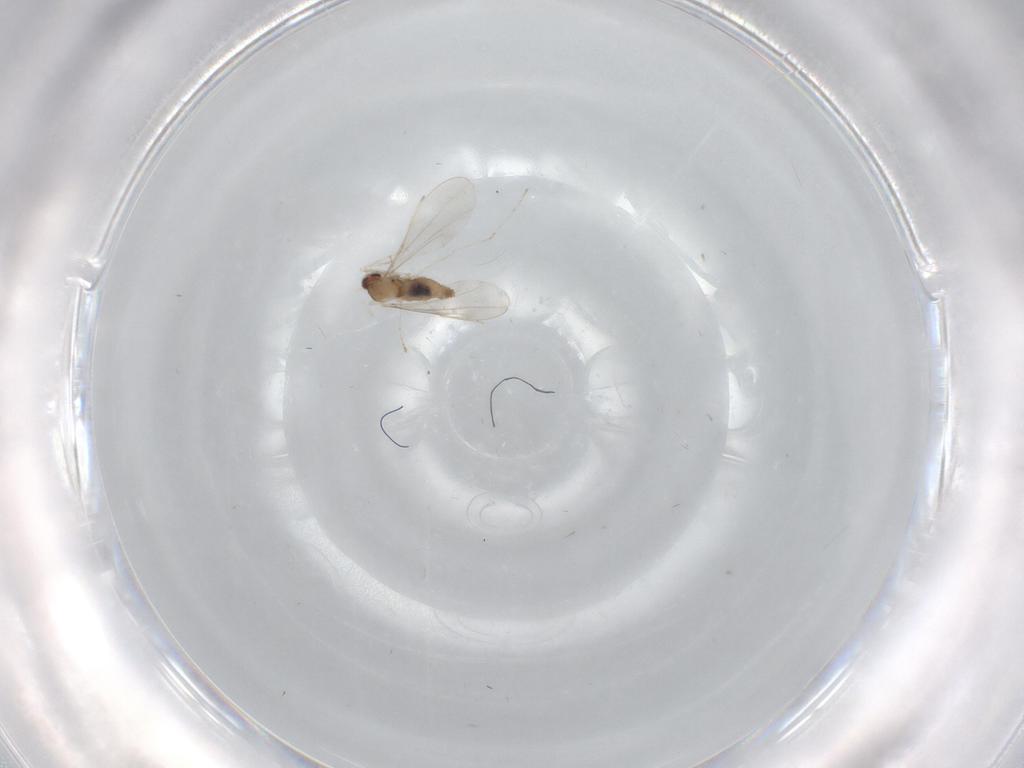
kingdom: Animalia
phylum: Arthropoda
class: Insecta
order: Diptera
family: Cecidomyiidae
